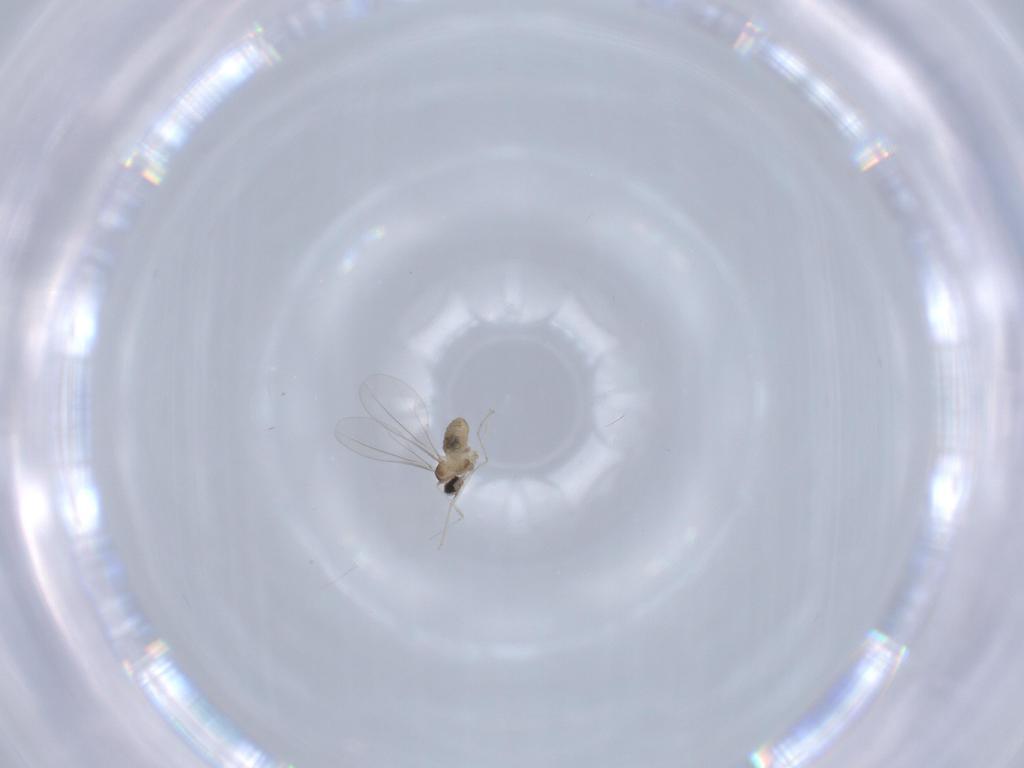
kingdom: Animalia
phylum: Arthropoda
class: Insecta
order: Diptera
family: Cecidomyiidae
